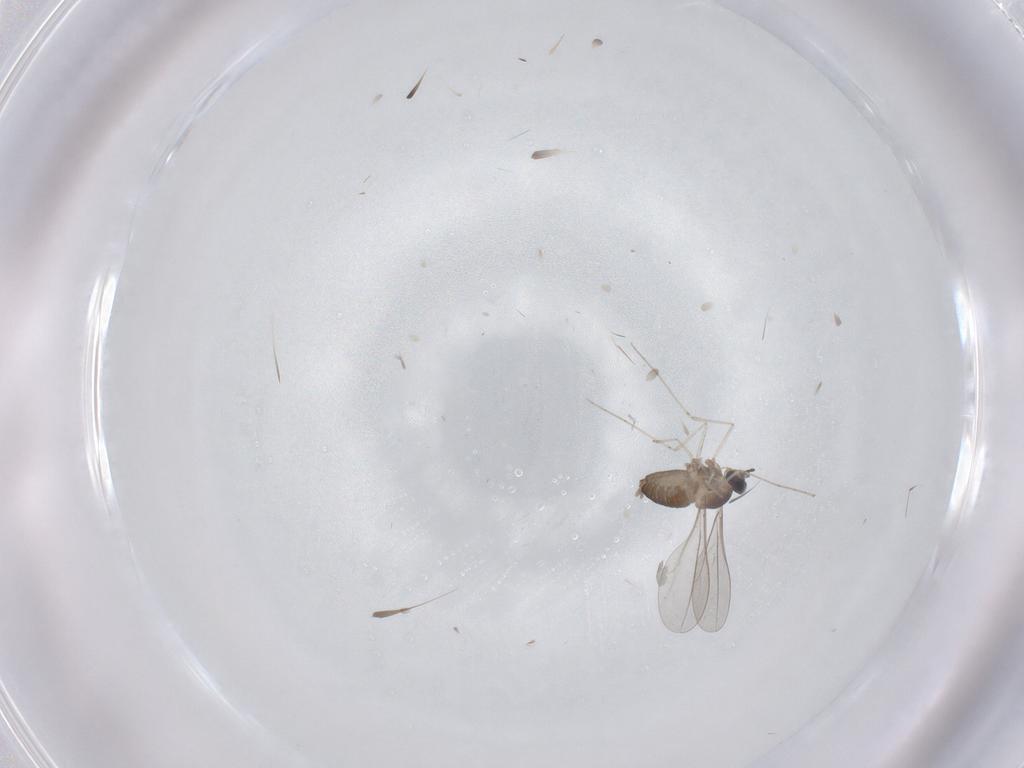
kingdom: Animalia
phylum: Arthropoda
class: Insecta
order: Diptera
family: Cecidomyiidae
